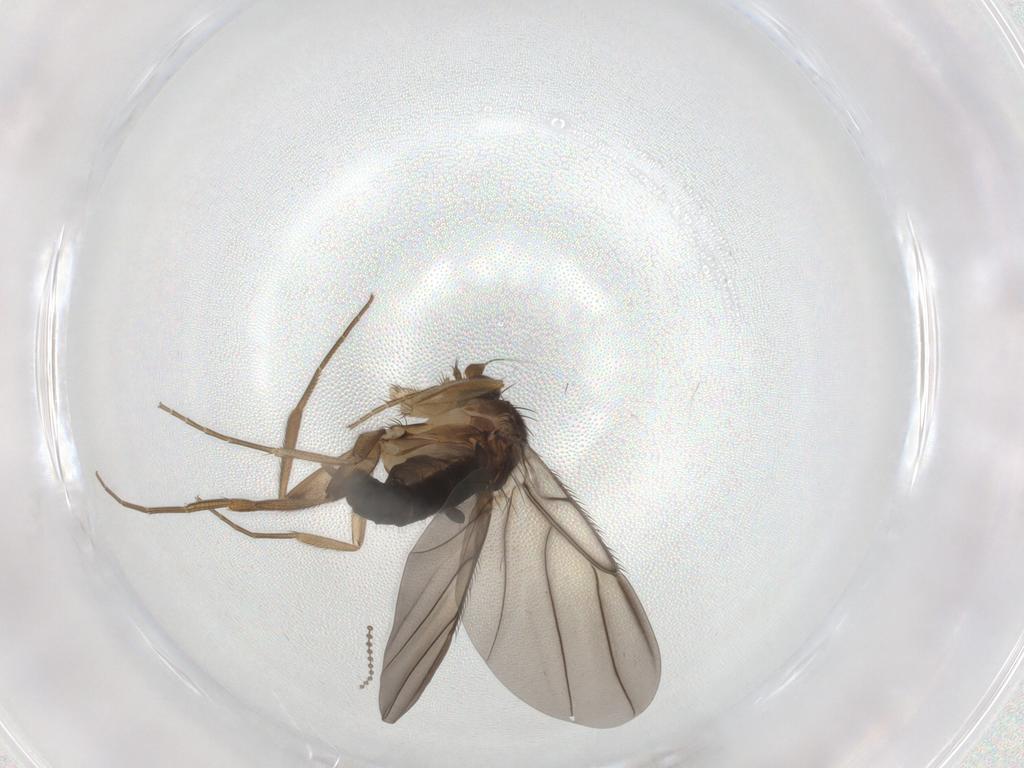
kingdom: Animalia
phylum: Arthropoda
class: Insecta
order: Diptera
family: Phoridae
